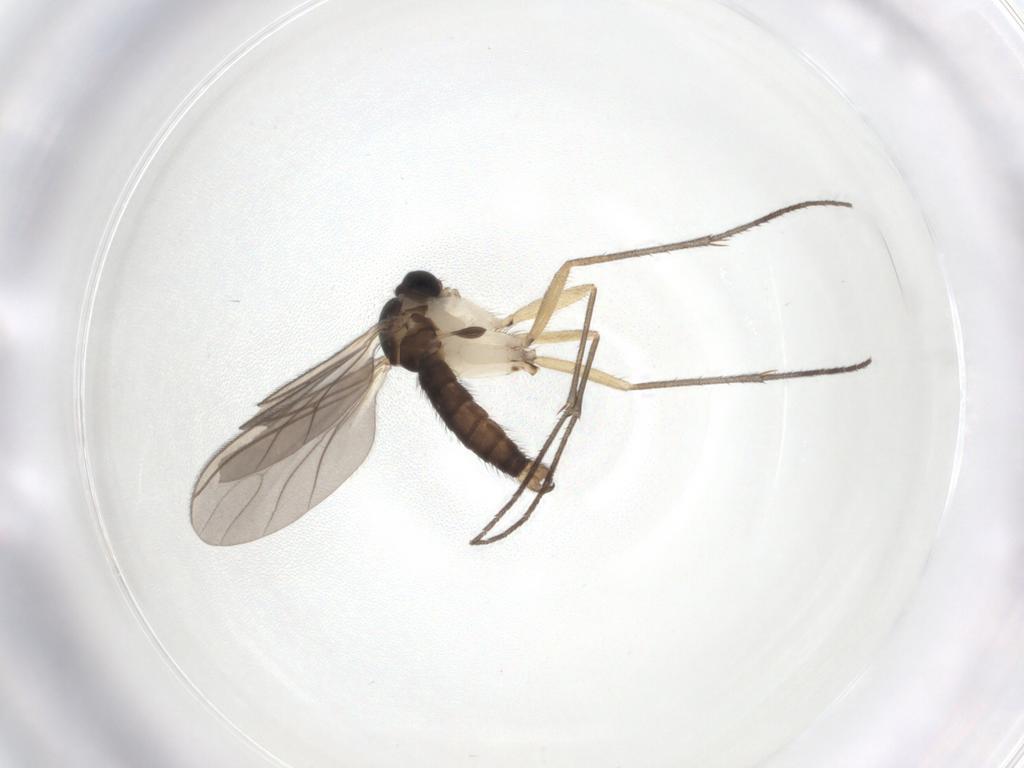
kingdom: Animalia
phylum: Arthropoda
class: Insecta
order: Diptera
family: Sciaridae
